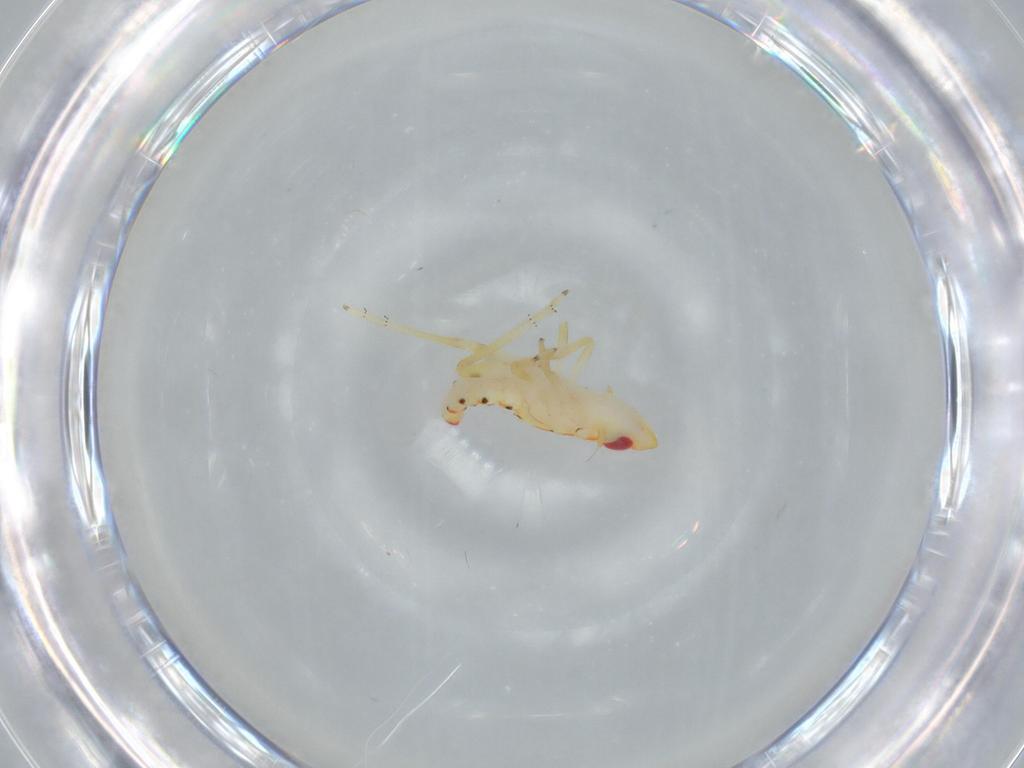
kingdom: Animalia
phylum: Arthropoda
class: Insecta
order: Hemiptera
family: Tropiduchidae
